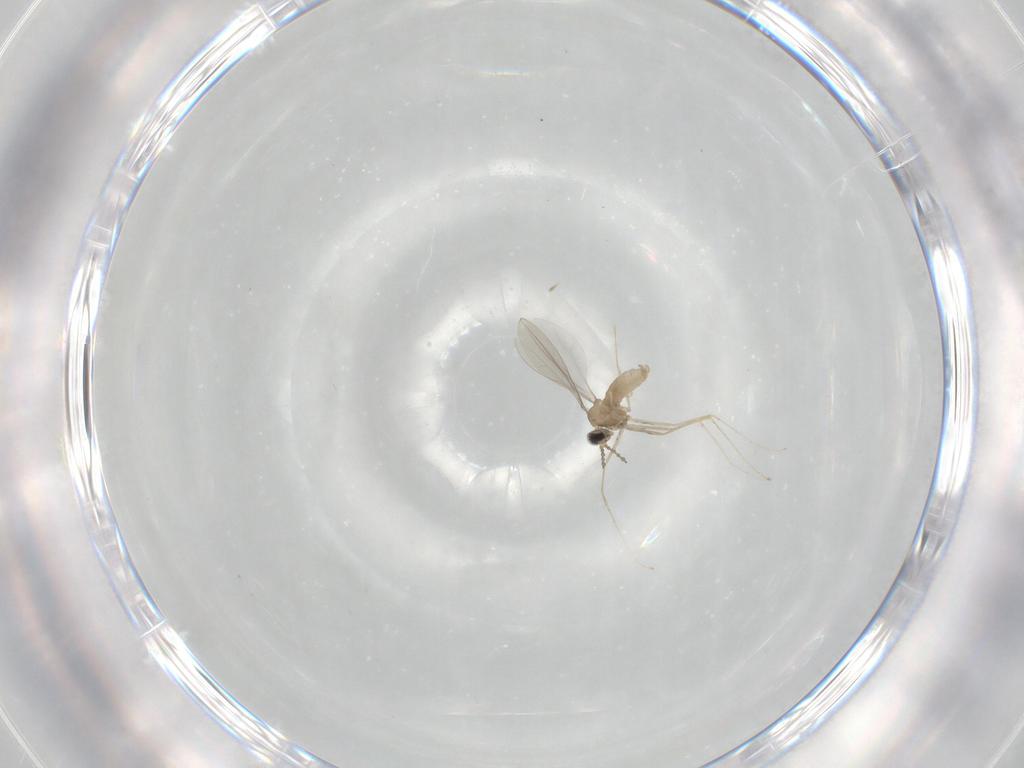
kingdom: Animalia
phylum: Arthropoda
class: Insecta
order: Diptera
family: Cecidomyiidae
